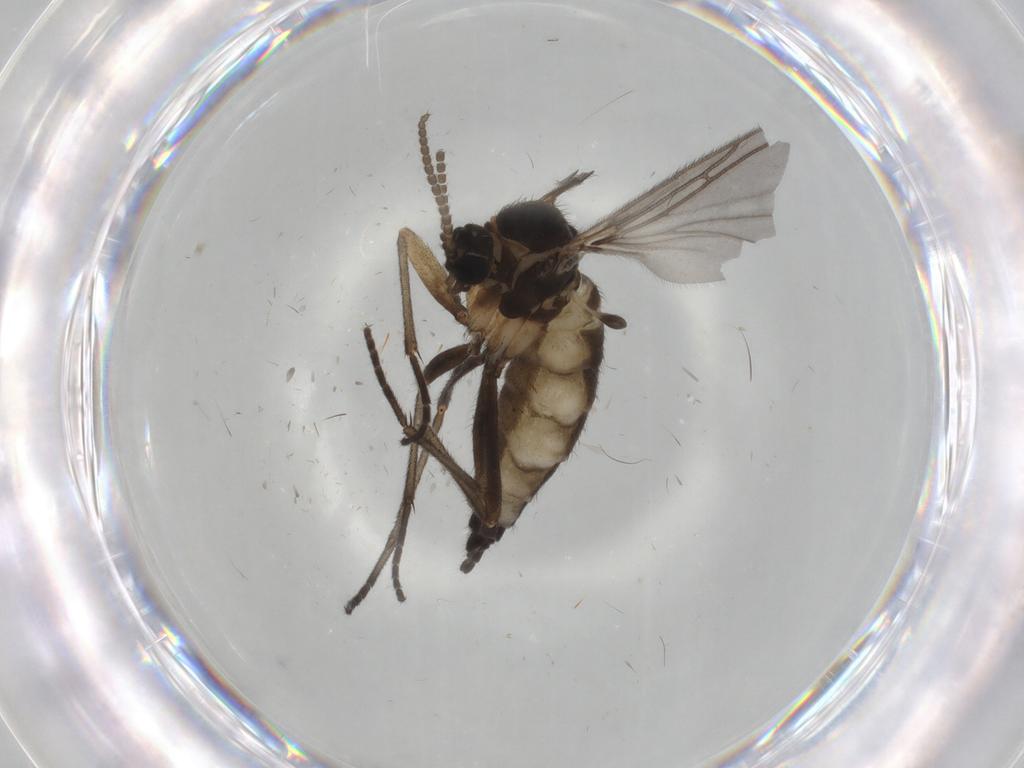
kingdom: Animalia
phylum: Arthropoda
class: Insecta
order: Diptera
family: Sciaridae
